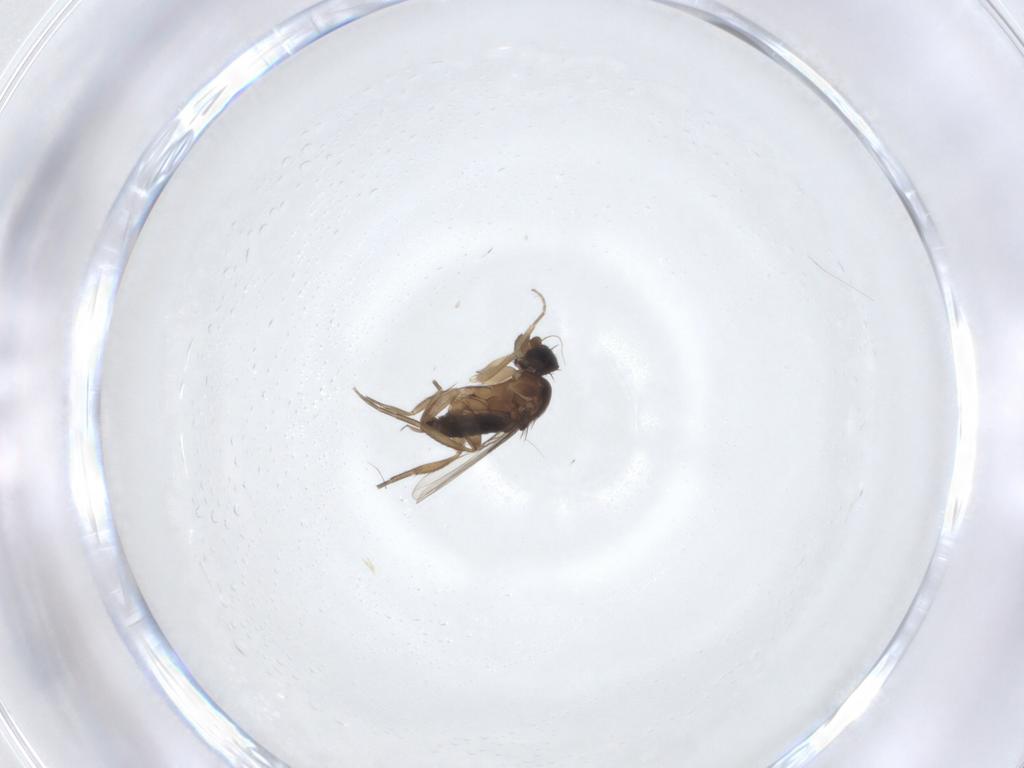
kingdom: Animalia
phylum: Arthropoda
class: Insecta
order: Diptera
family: Phoridae
